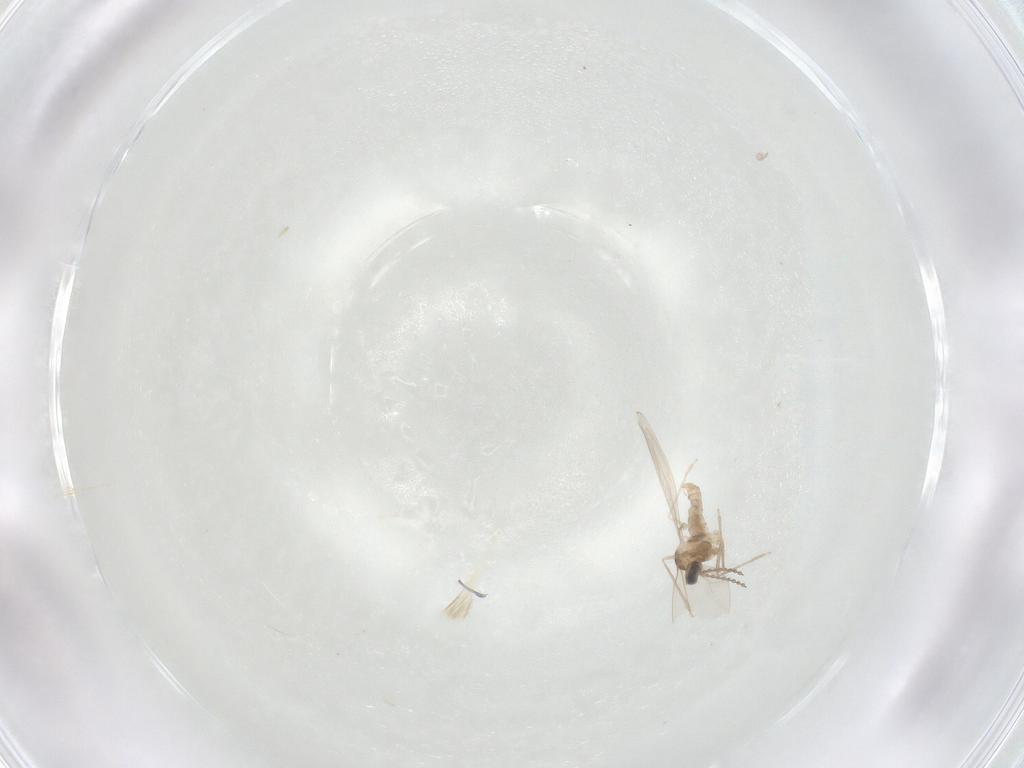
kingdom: Animalia
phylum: Arthropoda
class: Insecta
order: Diptera
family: Cecidomyiidae
